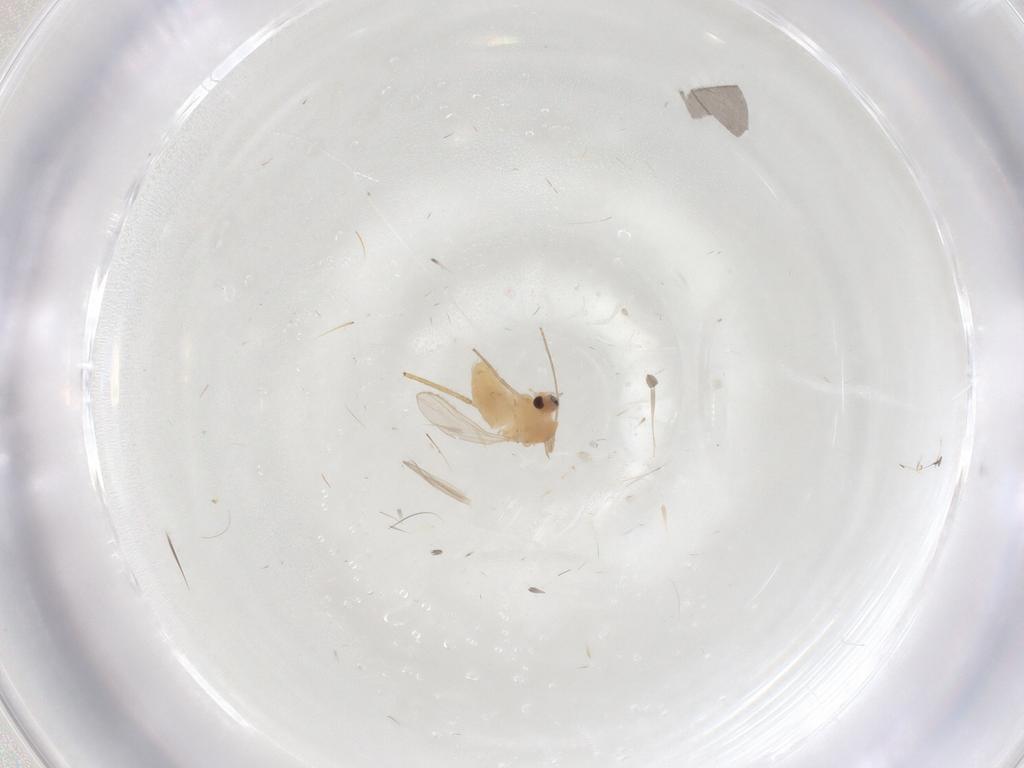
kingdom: Animalia
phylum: Arthropoda
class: Insecta
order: Diptera
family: Chironomidae
